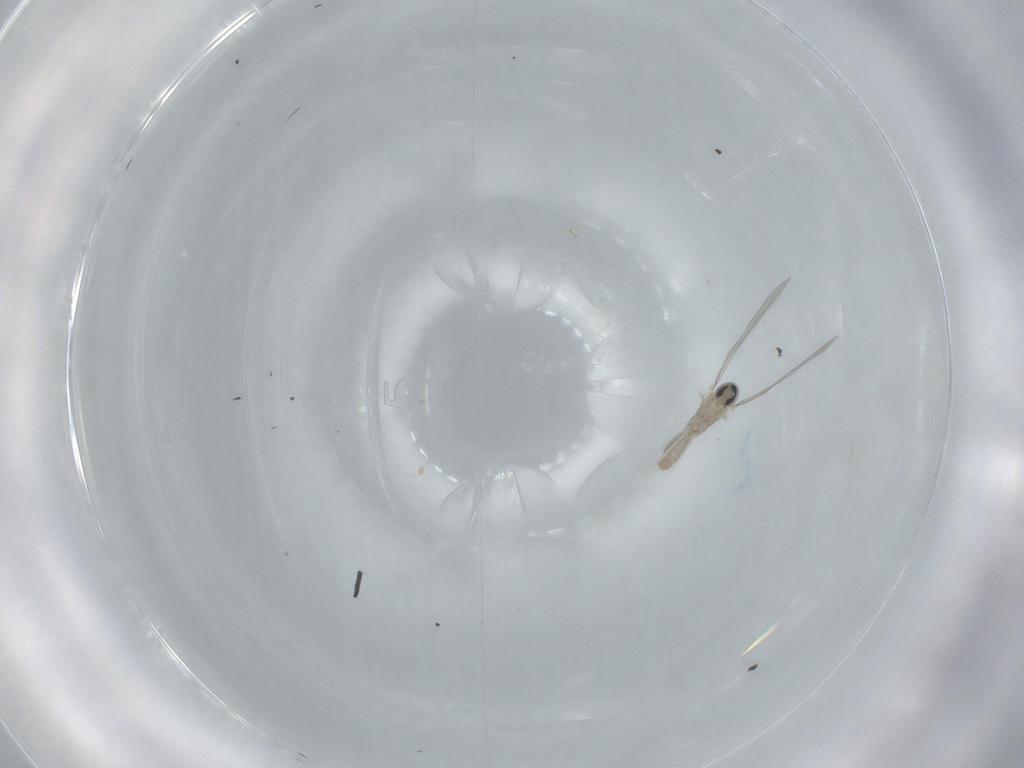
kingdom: Animalia
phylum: Arthropoda
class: Insecta
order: Diptera
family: Cecidomyiidae
